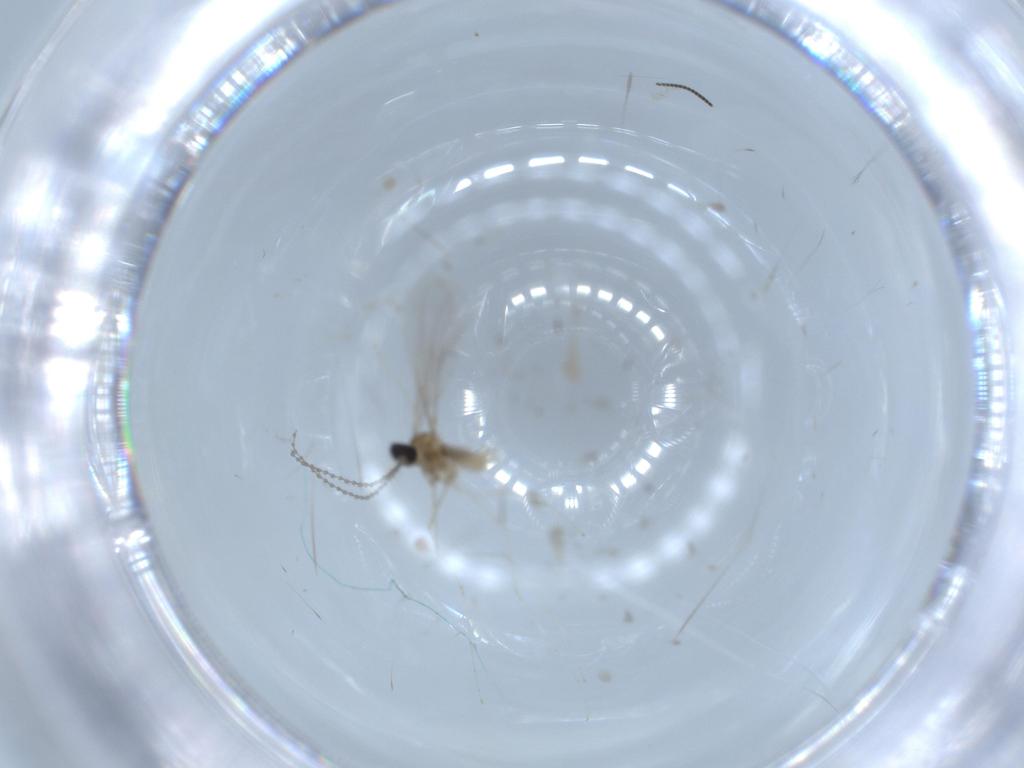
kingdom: Animalia
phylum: Arthropoda
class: Insecta
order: Diptera
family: Sciaridae
